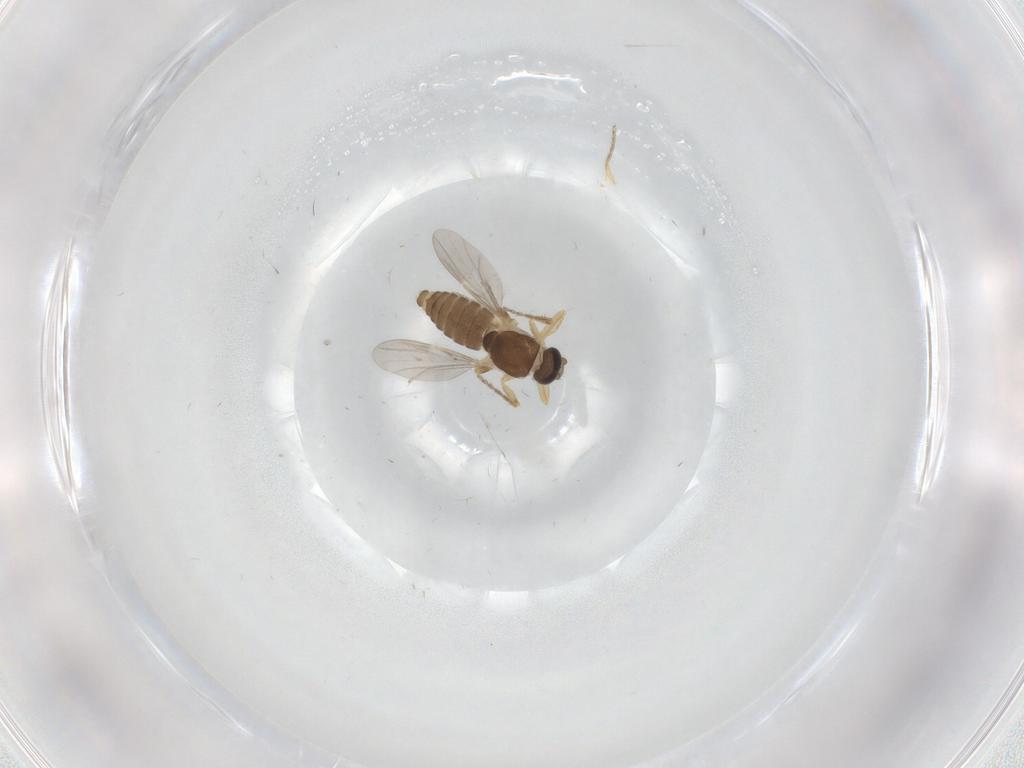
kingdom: Animalia
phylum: Arthropoda
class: Insecta
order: Diptera
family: Ceratopogonidae
